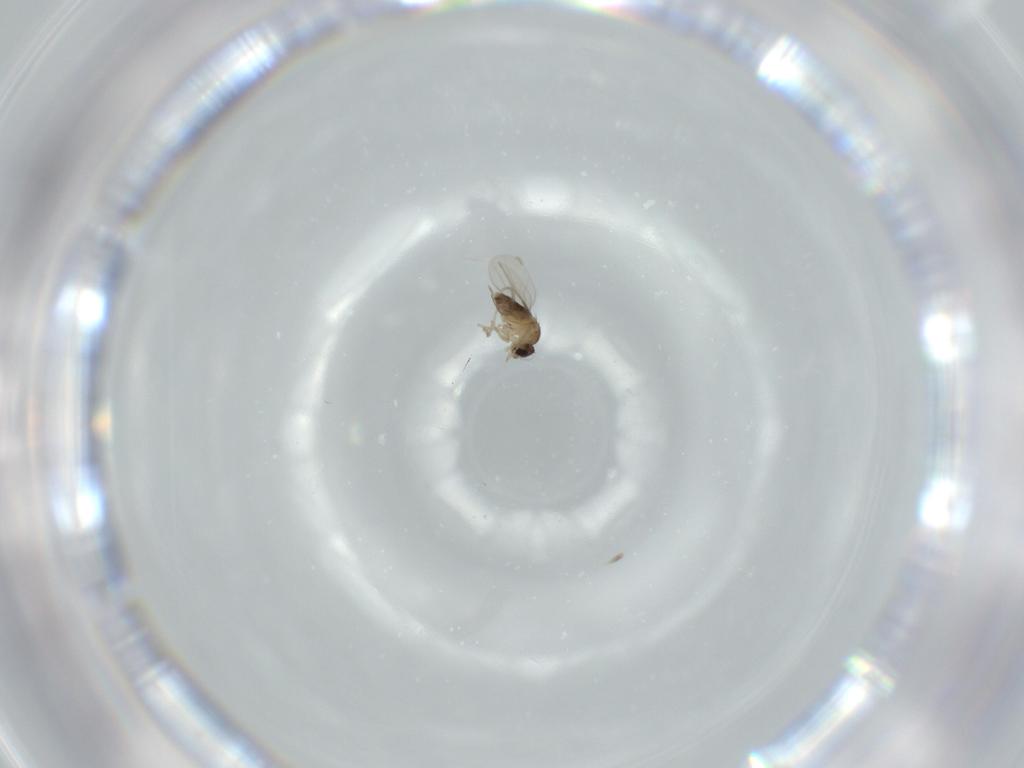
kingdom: Animalia
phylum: Arthropoda
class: Insecta
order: Diptera
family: Phoridae
